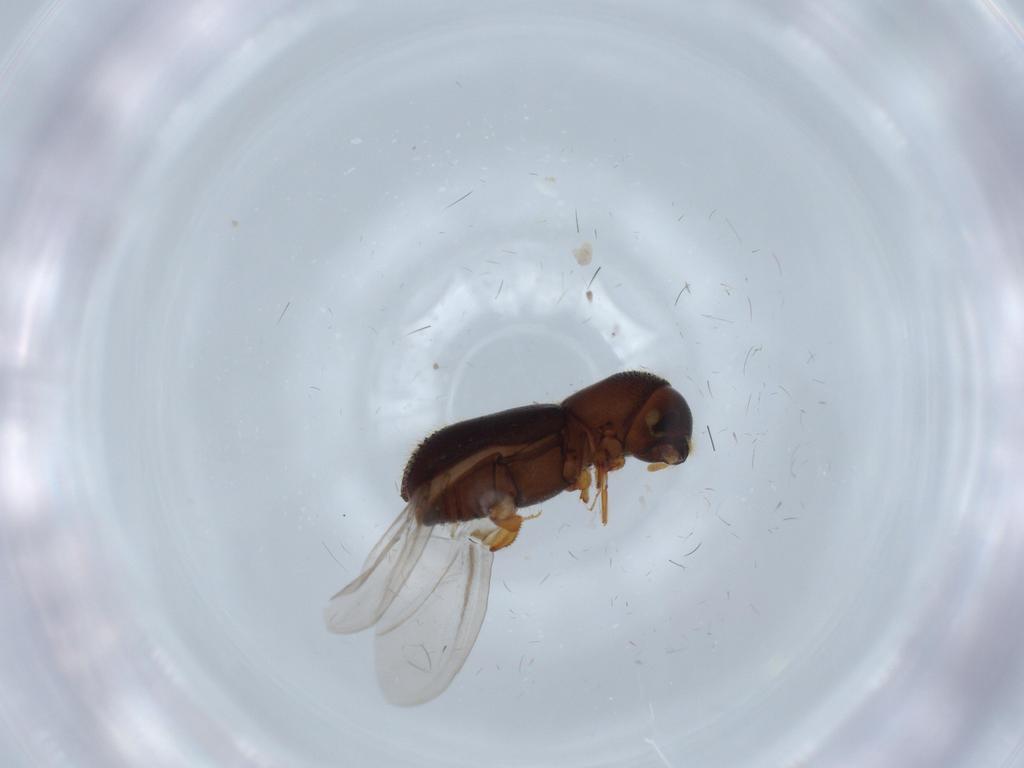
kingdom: Animalia
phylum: Arthropoda
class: Insecta
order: Coleoptera
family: Curculionidae
